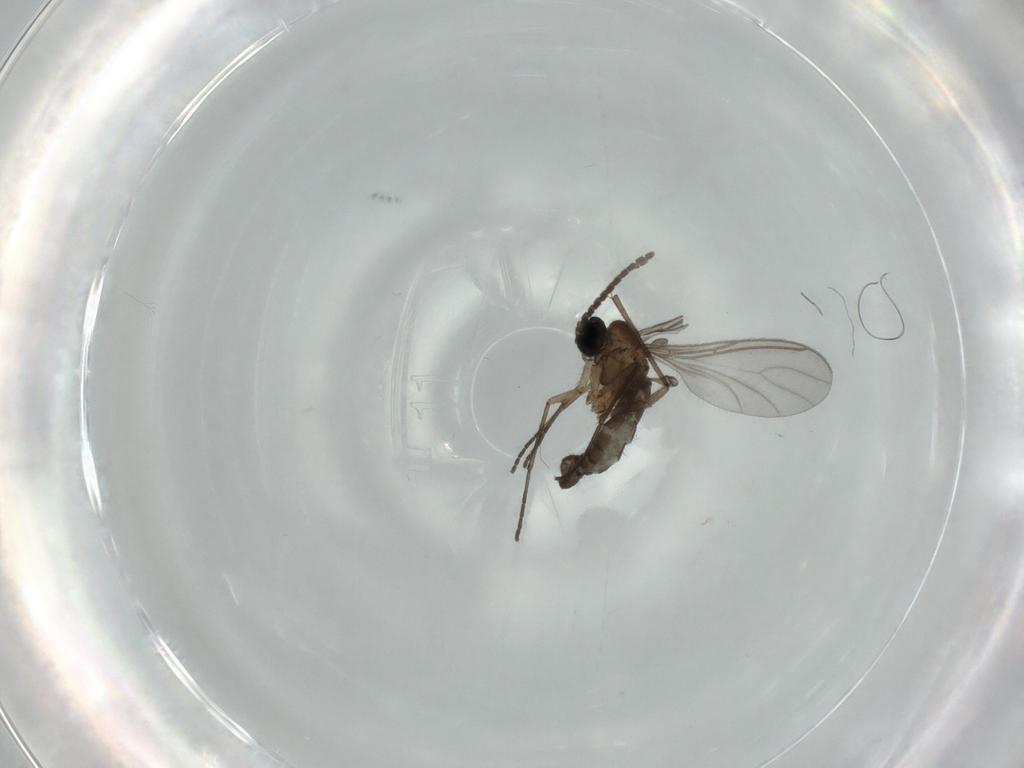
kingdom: Animalia
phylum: Arthropoda
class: Insecta
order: Diptera
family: Sciaridae
